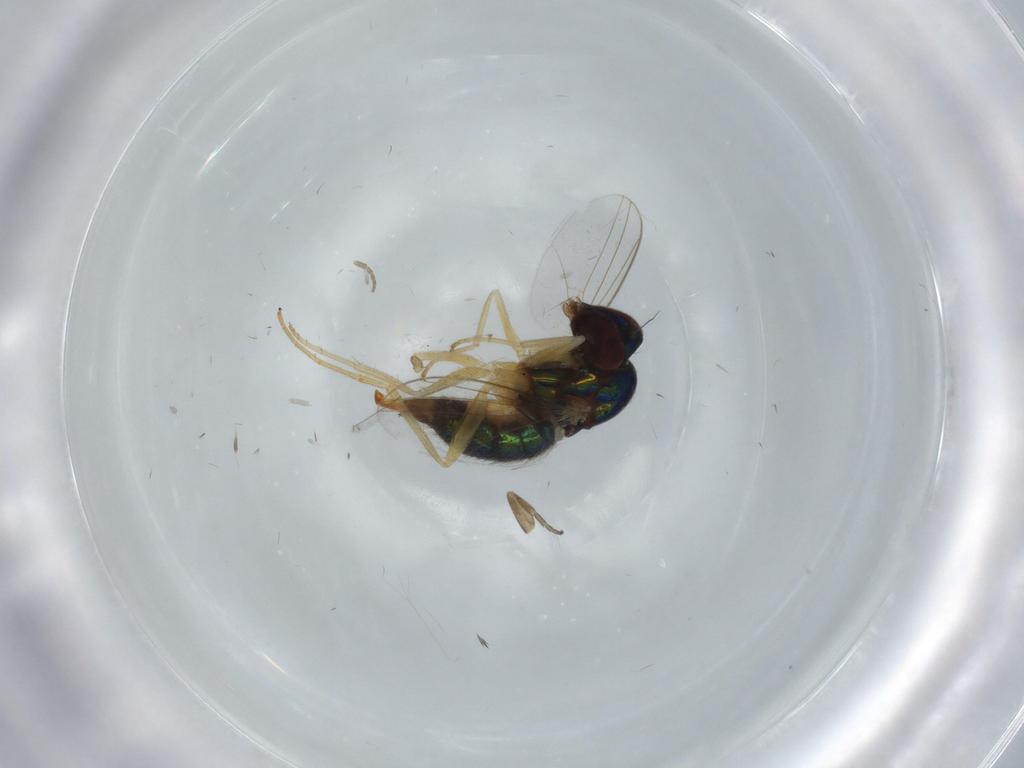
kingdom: Animalia
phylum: Arthropoda
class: Insecta
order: Diptera
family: Dolichopodidae
